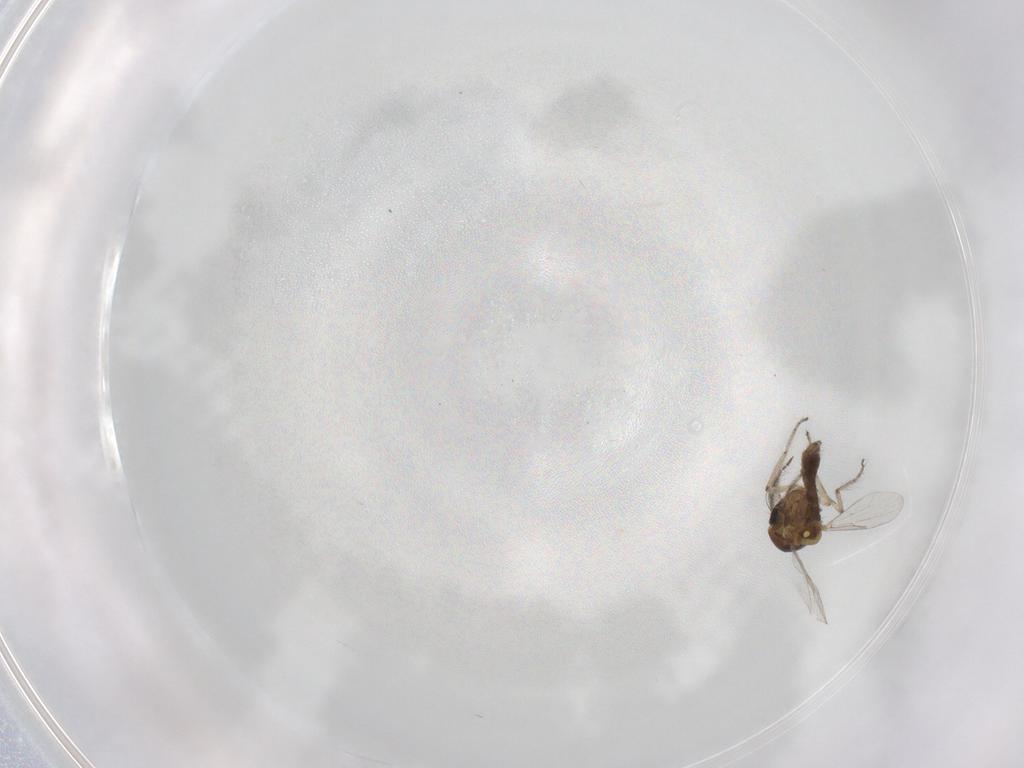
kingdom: Animalia
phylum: Arthropoda
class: Insecta
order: Diptera
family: Ceratopogonidae
